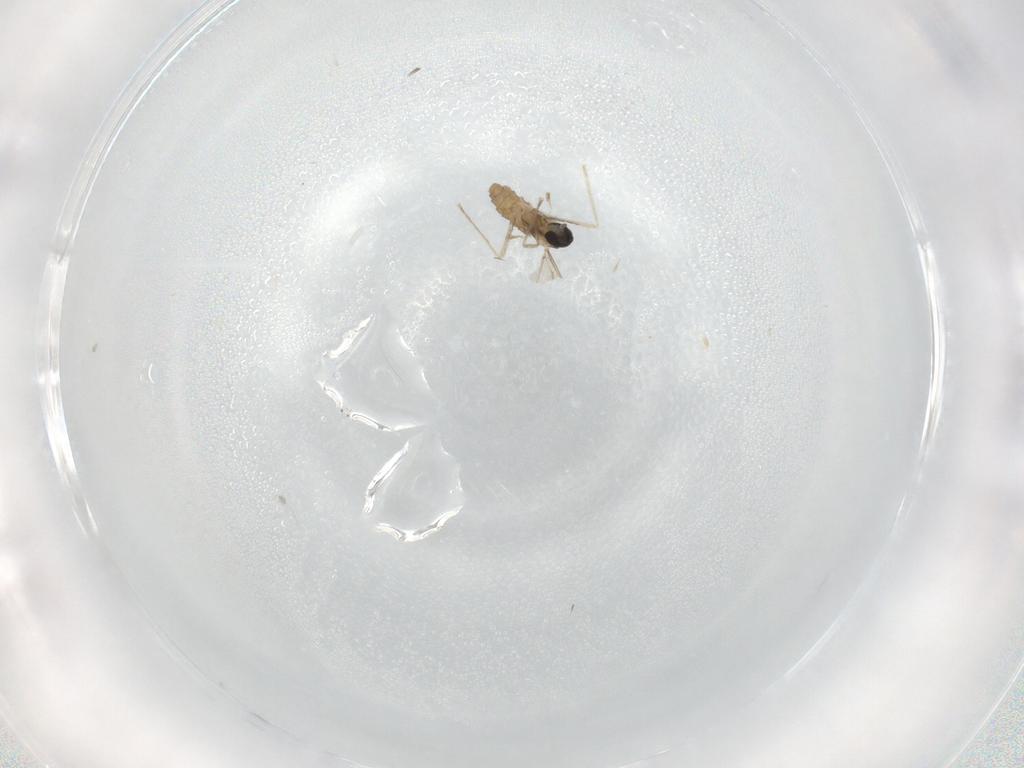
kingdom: Animalia
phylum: Arthropoda
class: Insecta
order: Diptera
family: Cecidomyiidae
